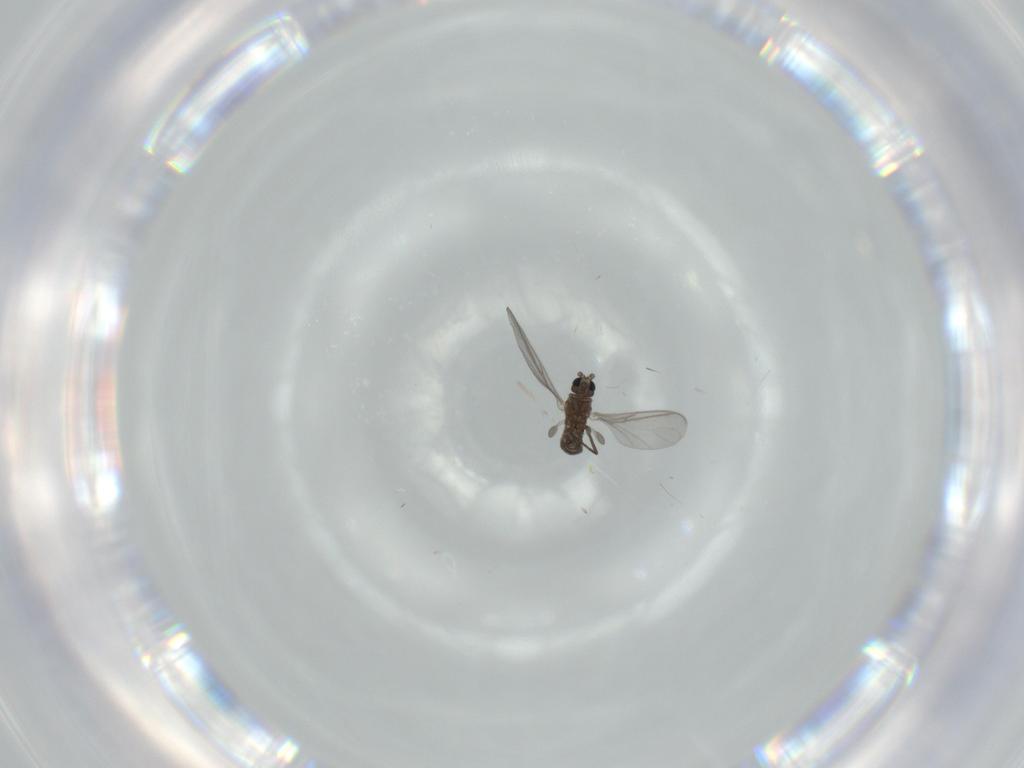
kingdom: Animalia
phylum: Arthropoda
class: Insecta
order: Diptera
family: Sciaridae
